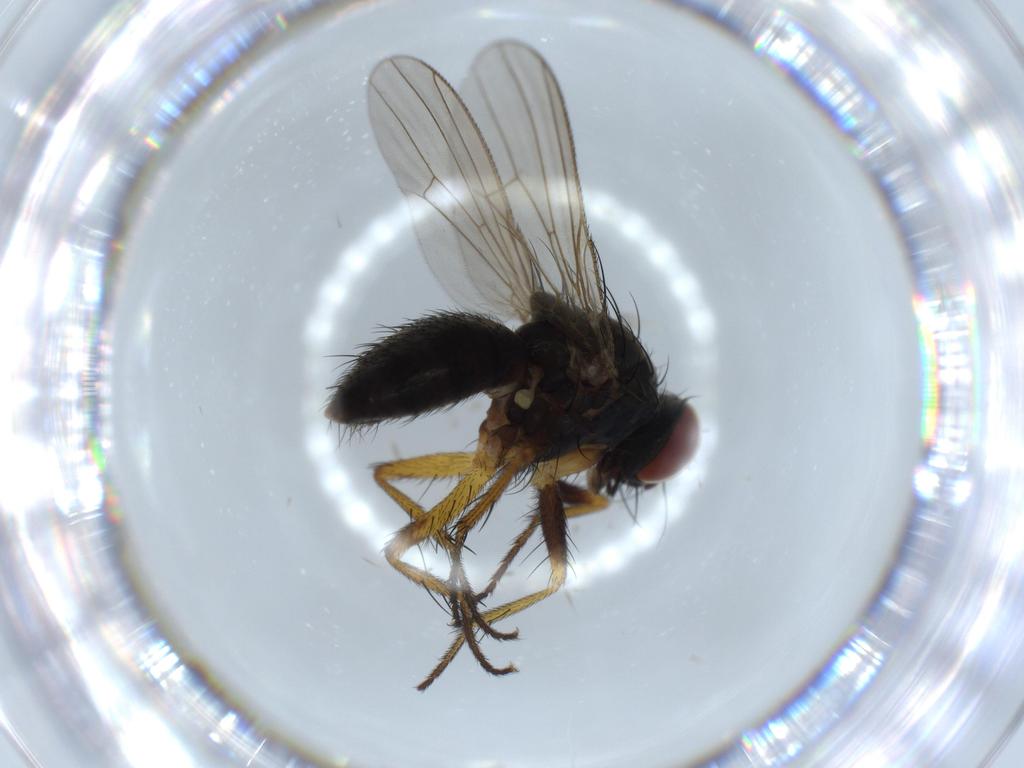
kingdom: Animalia
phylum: Arthropoda
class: Insecta
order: Diptera
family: Muscidae
